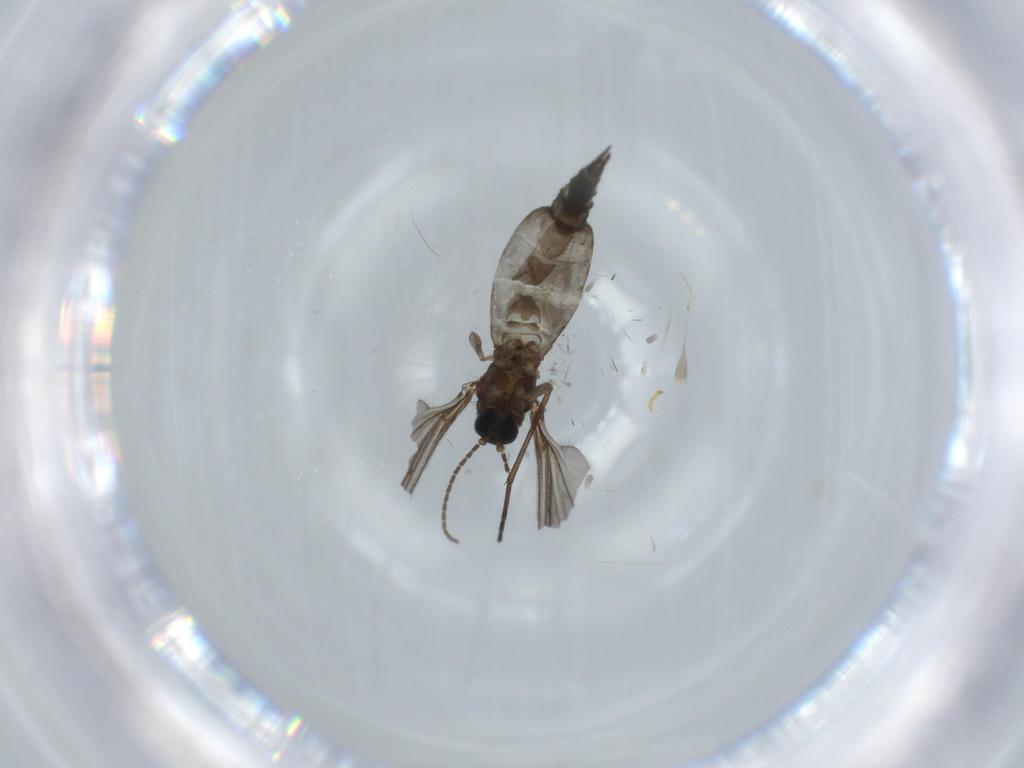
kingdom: Animalia
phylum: Arthropoda
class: Insecta
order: Diptera
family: Sciaridae
